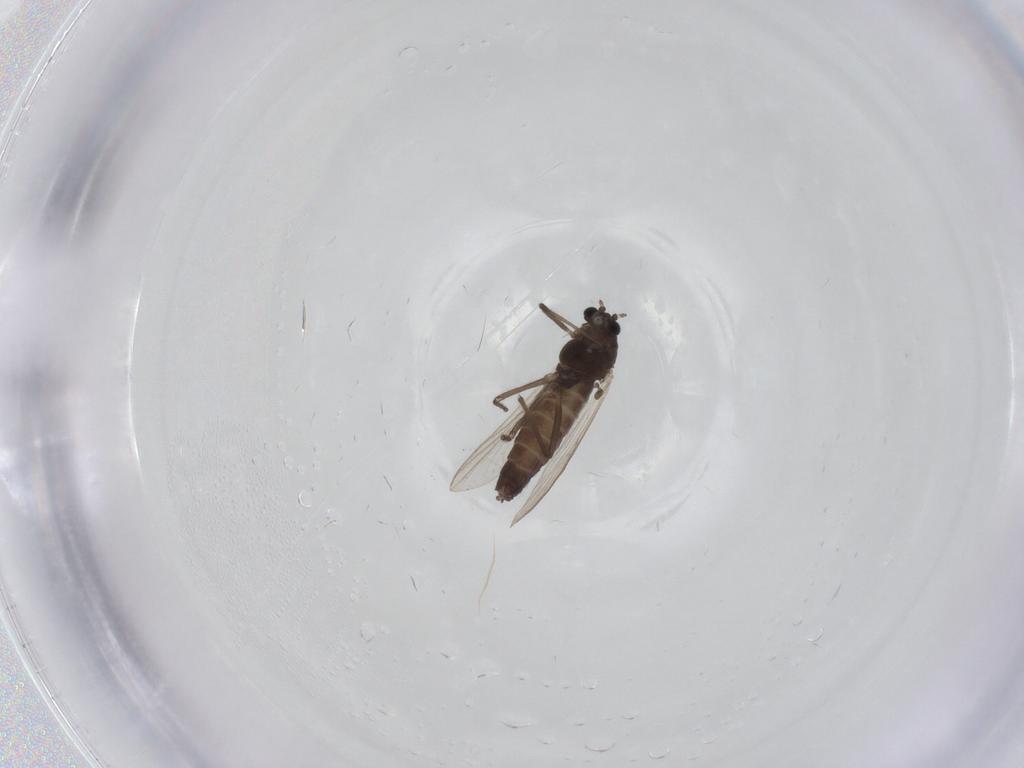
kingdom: Animalia
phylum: Arthropoda
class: Insecta
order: Diptera
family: Chironomidae
